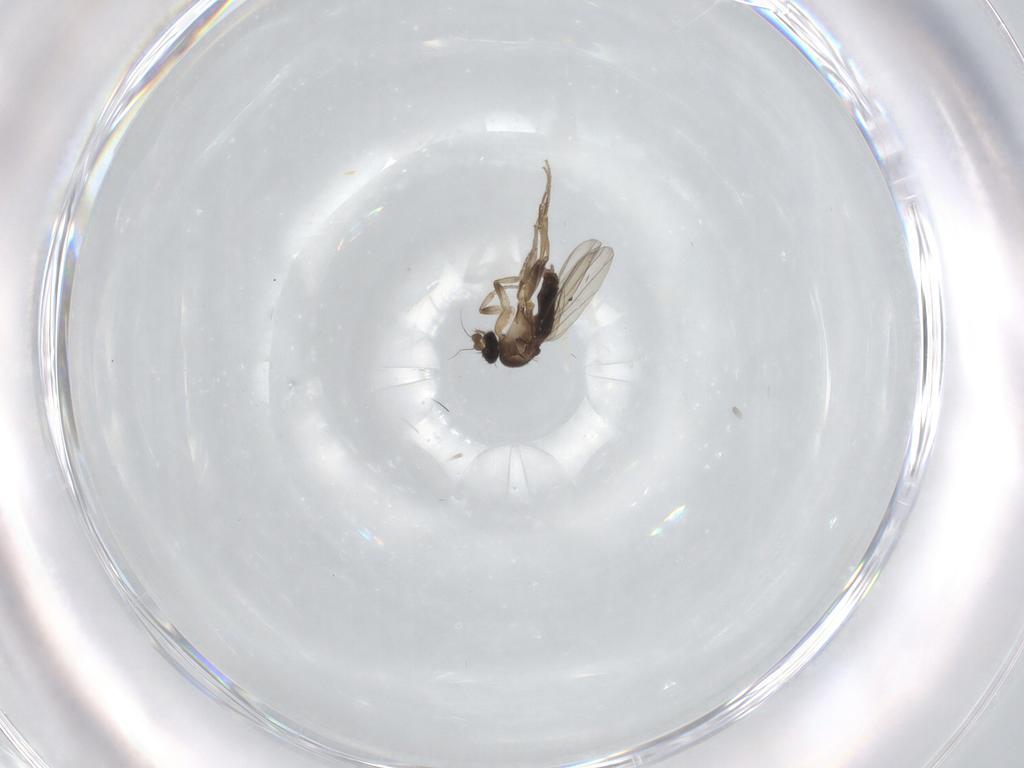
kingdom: Animalia
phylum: Arthropoda
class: Insecta
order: Diptera
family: Phoridae
